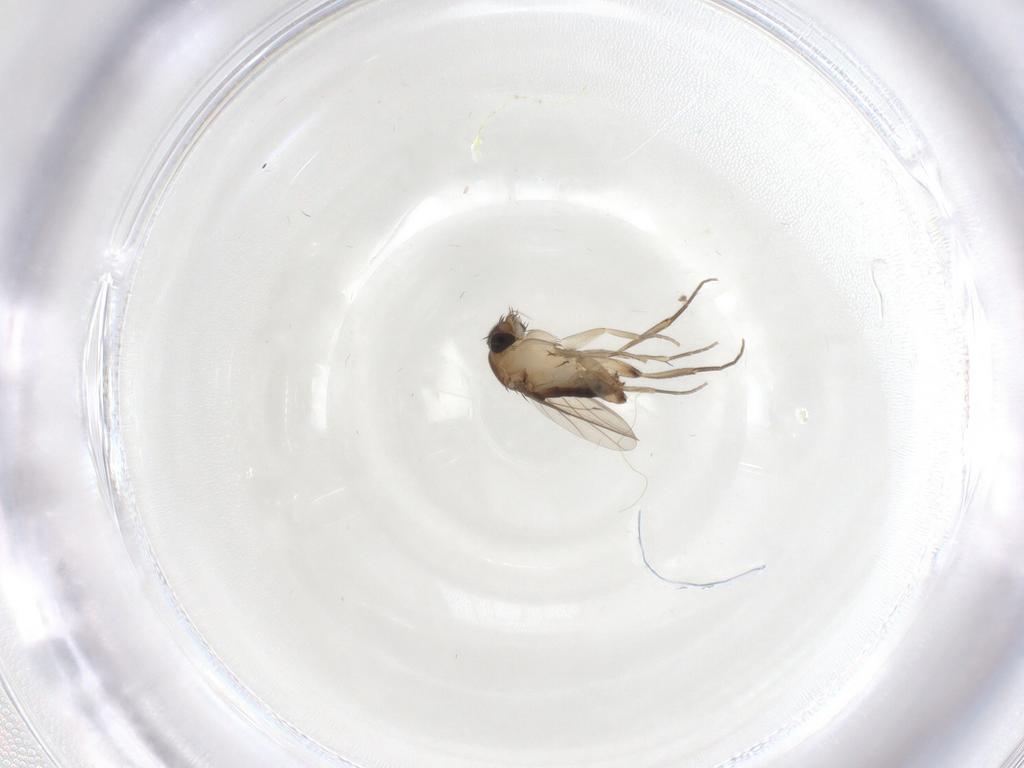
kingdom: Animalia
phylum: Arthropoda
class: Insecta
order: Diptera
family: Phoridae
